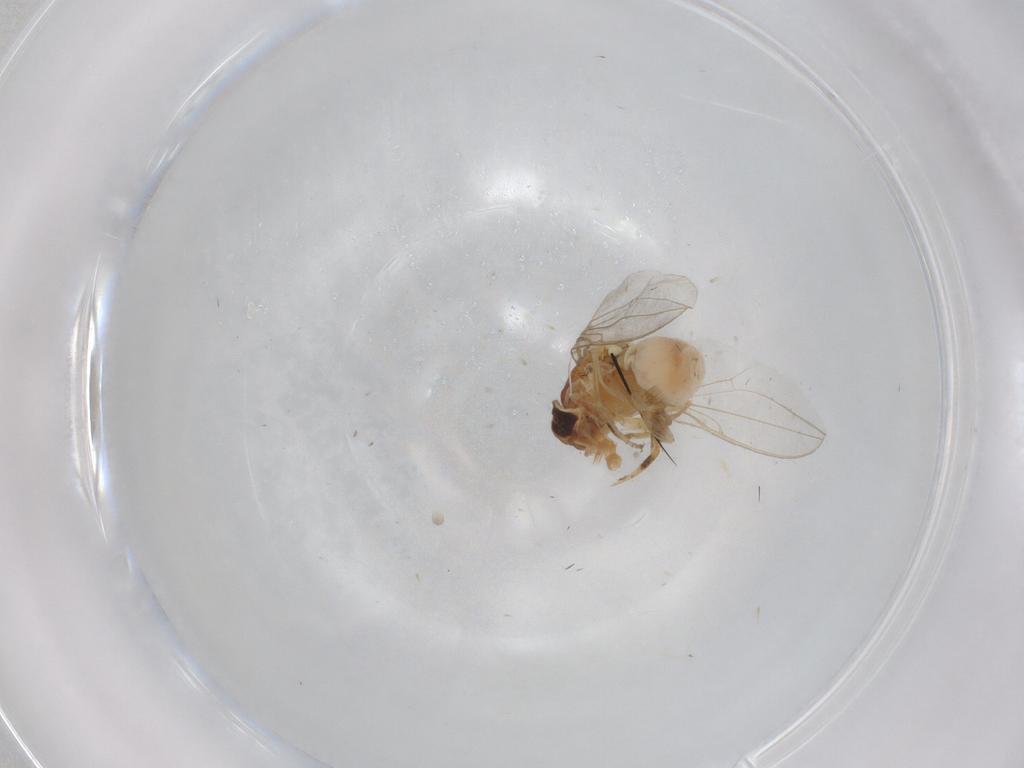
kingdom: Animalia
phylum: Arthropoda
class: Insecta
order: Diptera
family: Asteiidae
